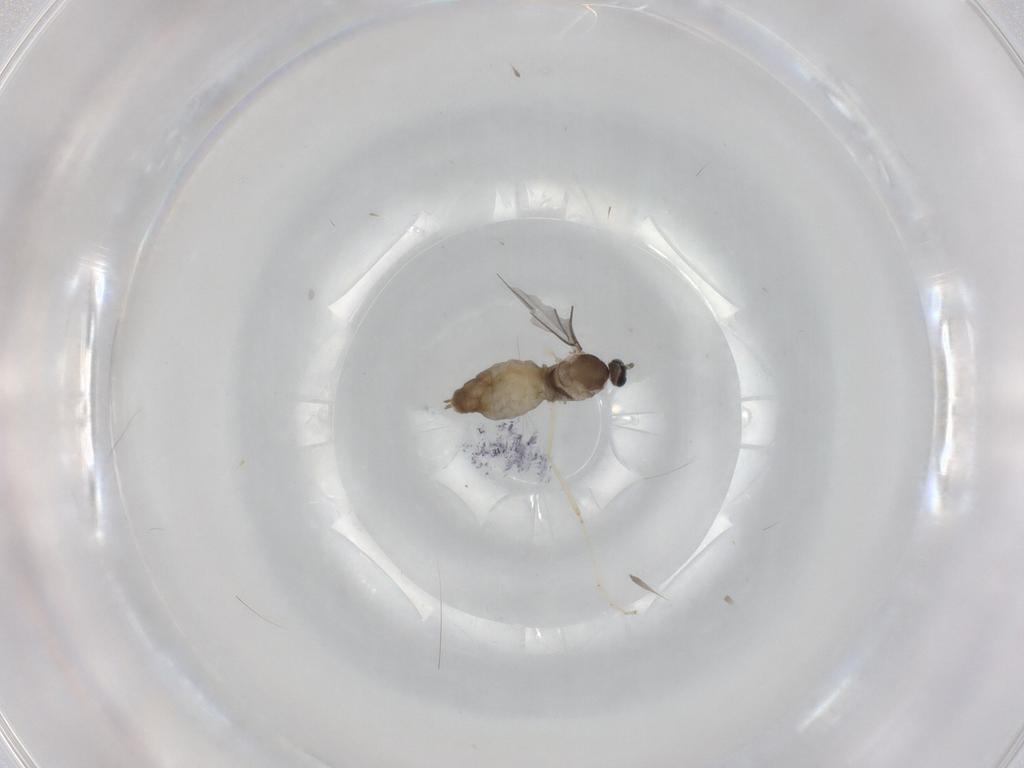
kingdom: Animalia
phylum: Arthropoda
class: Insecta
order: Diptera
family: Cecidomyiidae
